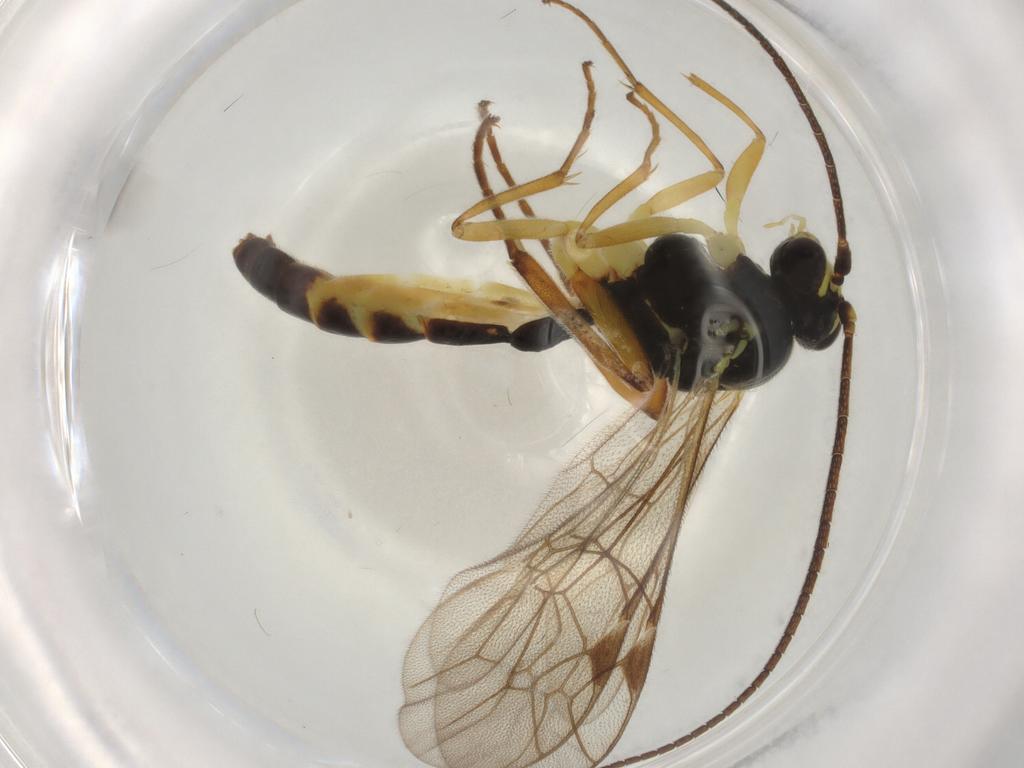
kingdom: Animalia
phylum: Arthropoda
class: Insecta
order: Hymenoptera
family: Ichneumonidae
